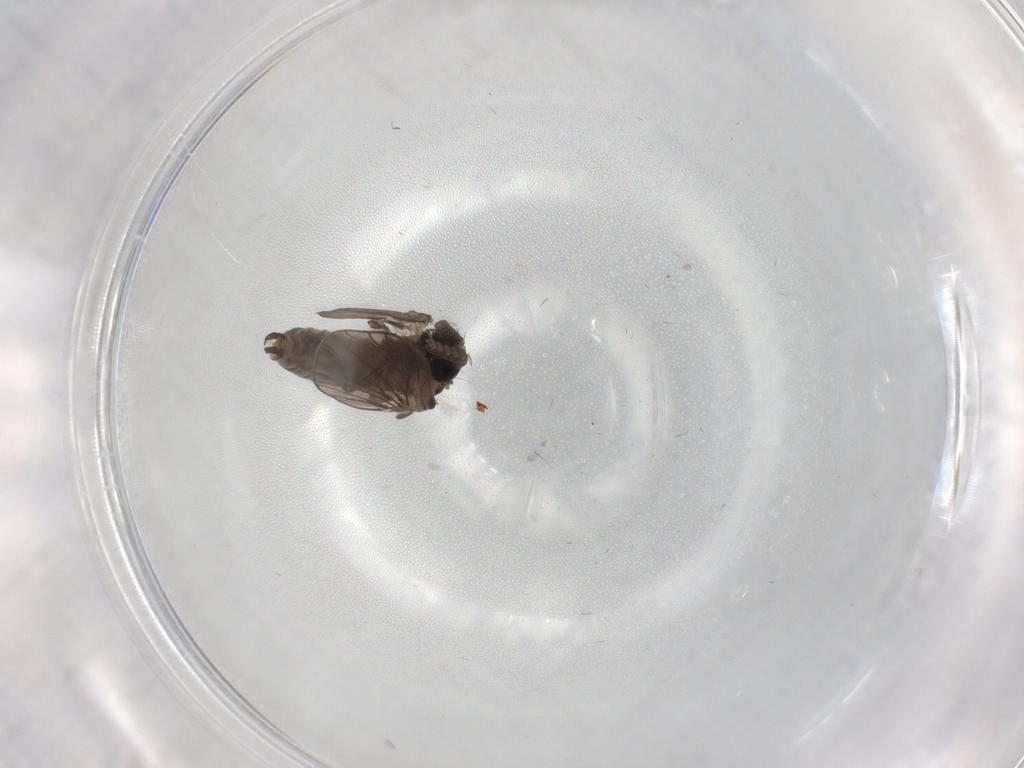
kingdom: Animalia
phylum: Arthropoda
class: Insecta
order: Diptera
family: Psychodidae
